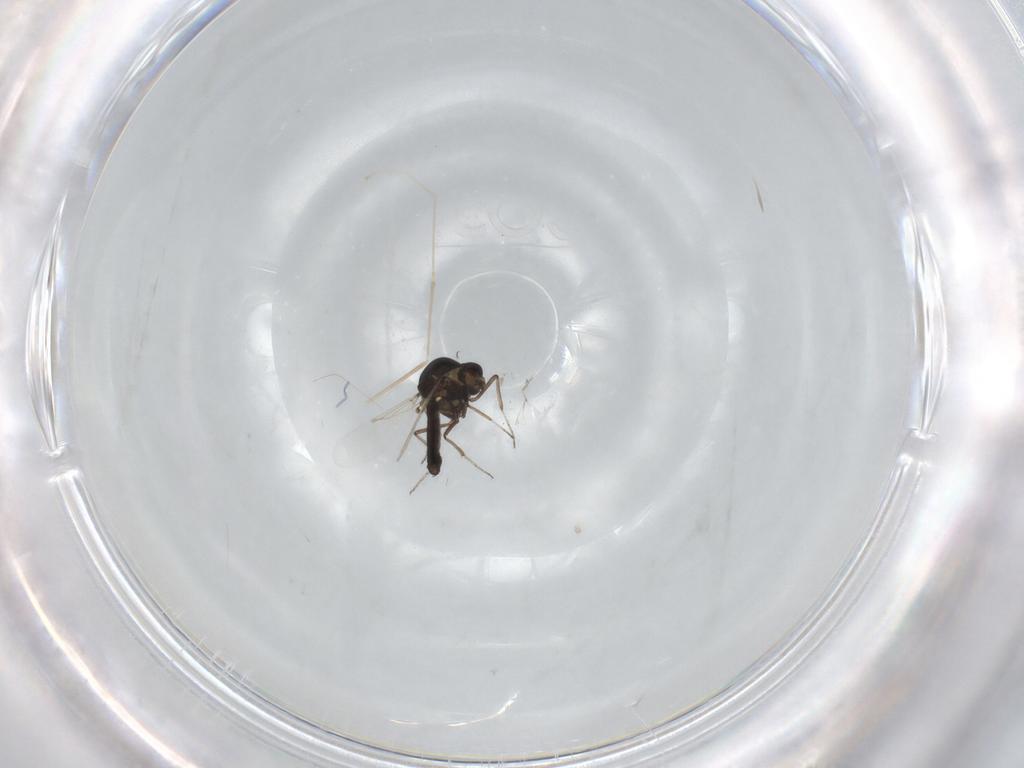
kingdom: Animalia
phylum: Arthropoda
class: Insecta
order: Diptera
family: Ceratopogonidae
